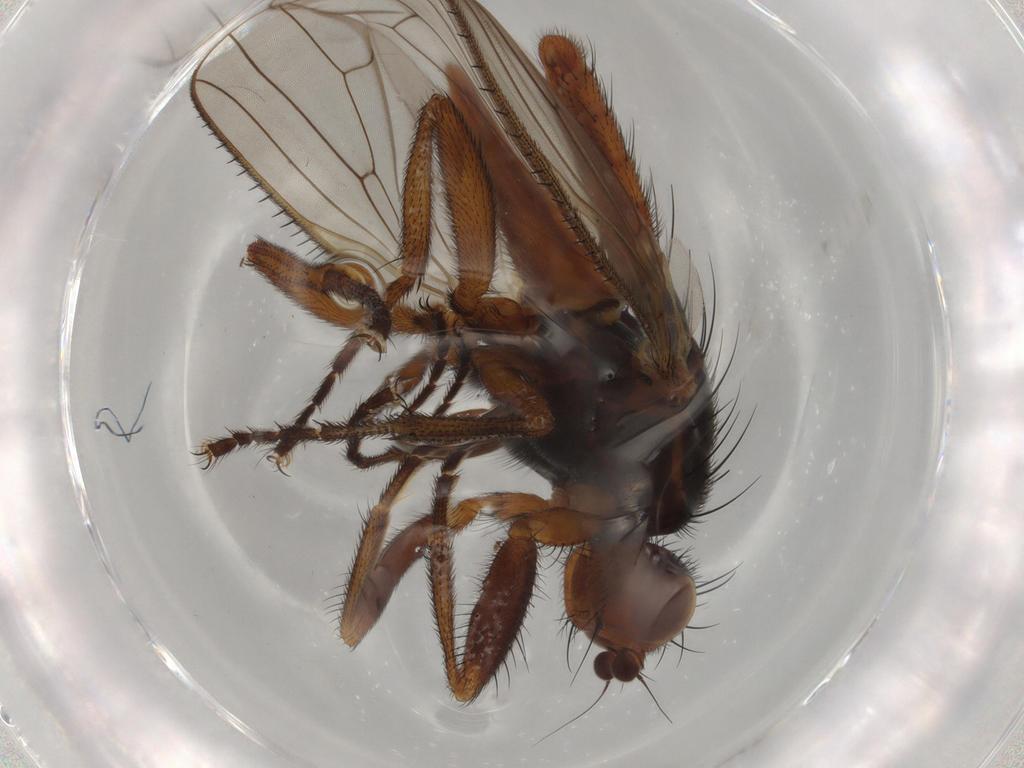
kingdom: Animalia
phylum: Arthropoda
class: Insecta
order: Diptera
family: Heleomyzidae
